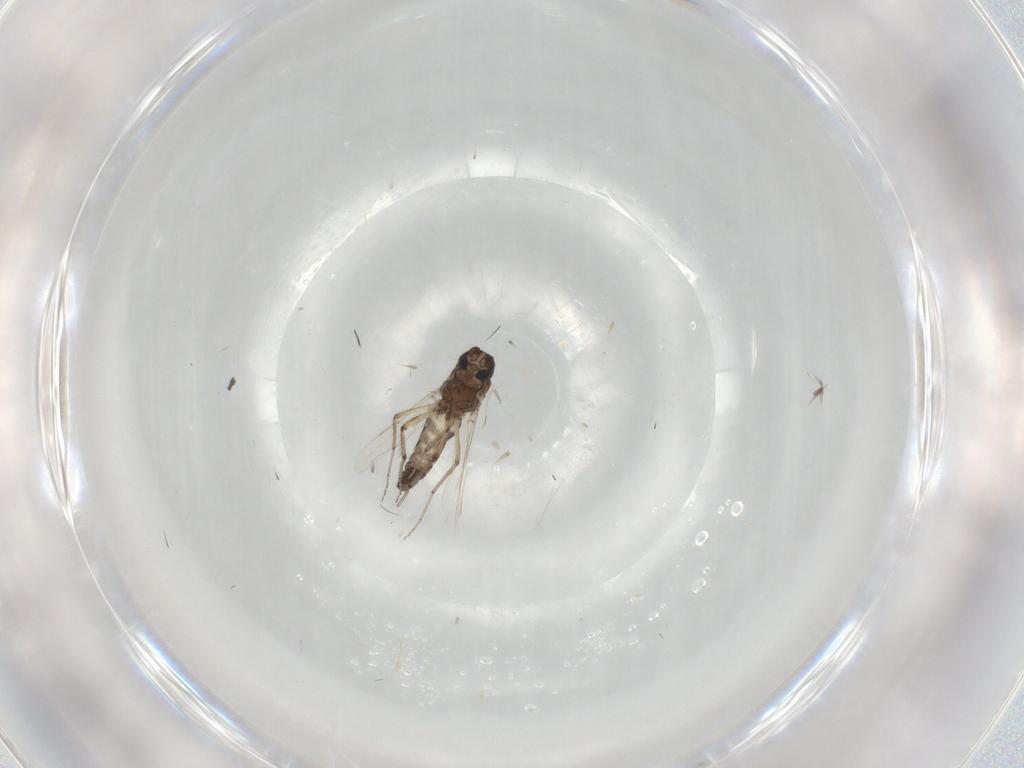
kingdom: Animalia
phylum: Arthropoda
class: Insecta
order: Diptera
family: Ceratopogonidae
